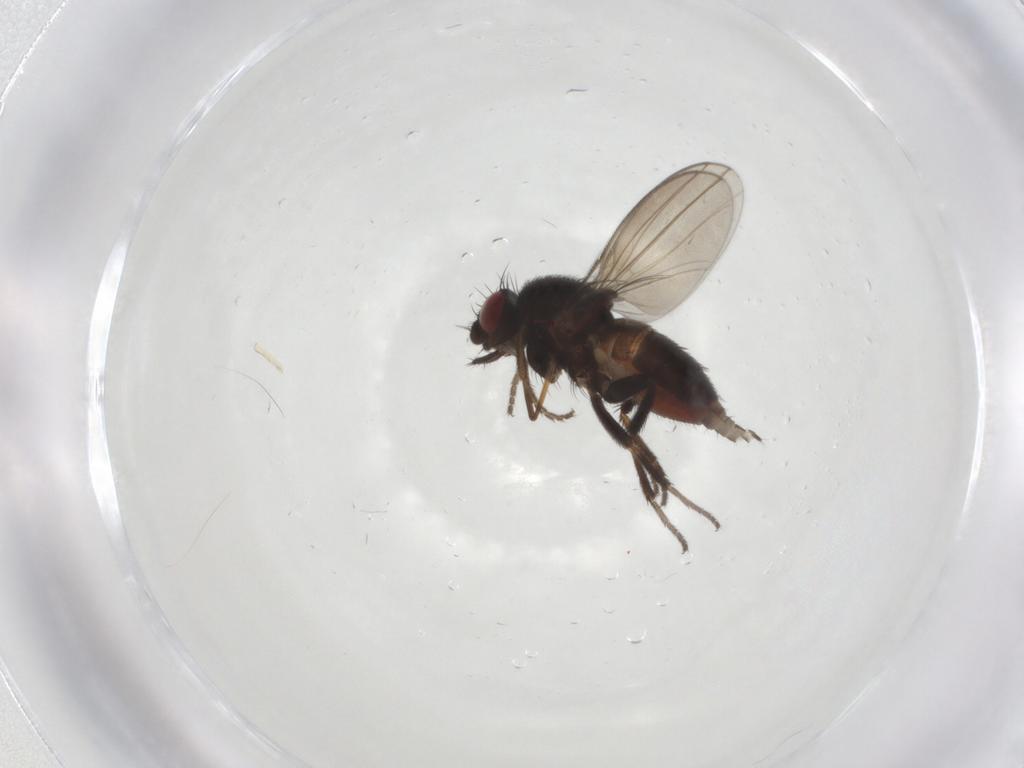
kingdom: Animalia
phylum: Arthropoda
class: Insecta
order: Diptera
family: Milichiidae
